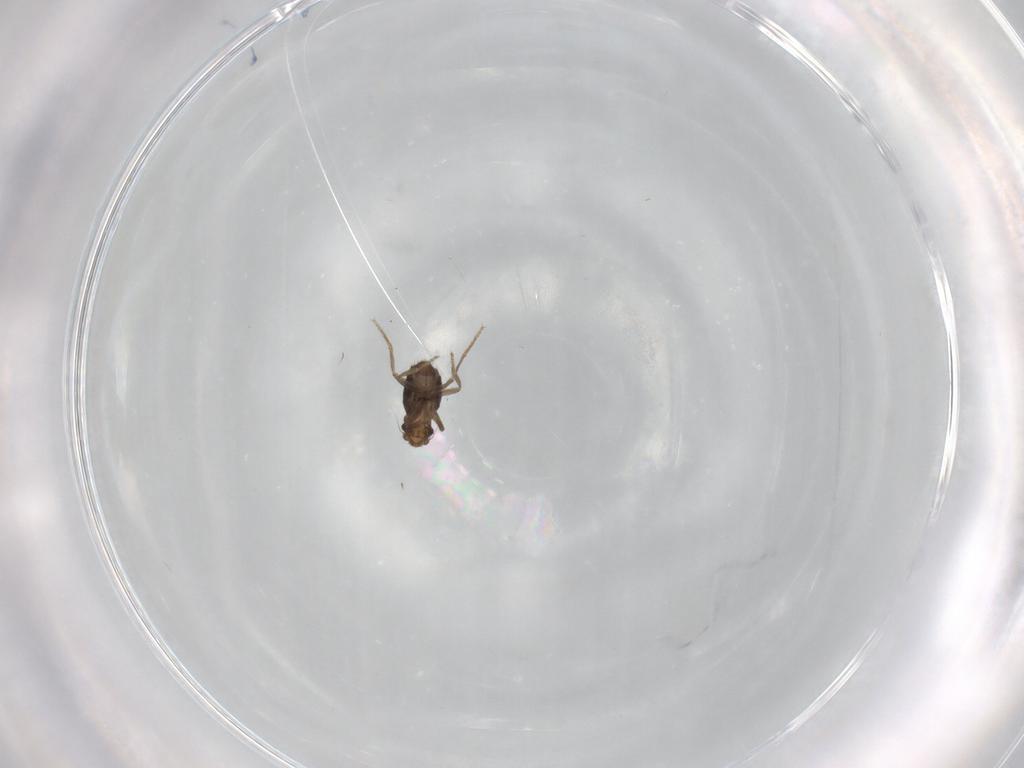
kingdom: Animalia
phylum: Arthropoda
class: Insecta
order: Diptera
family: Phoridae
